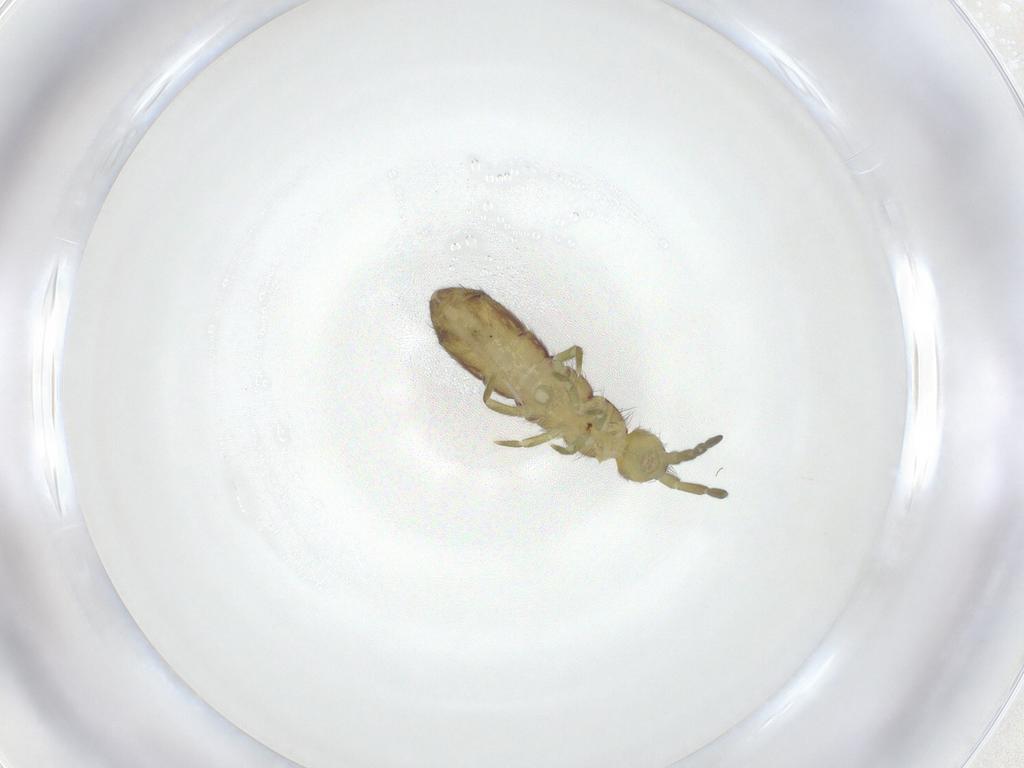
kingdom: Animalia
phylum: Arthropoda
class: Collembola
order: Entomobryomorpha
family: Isotomidae
